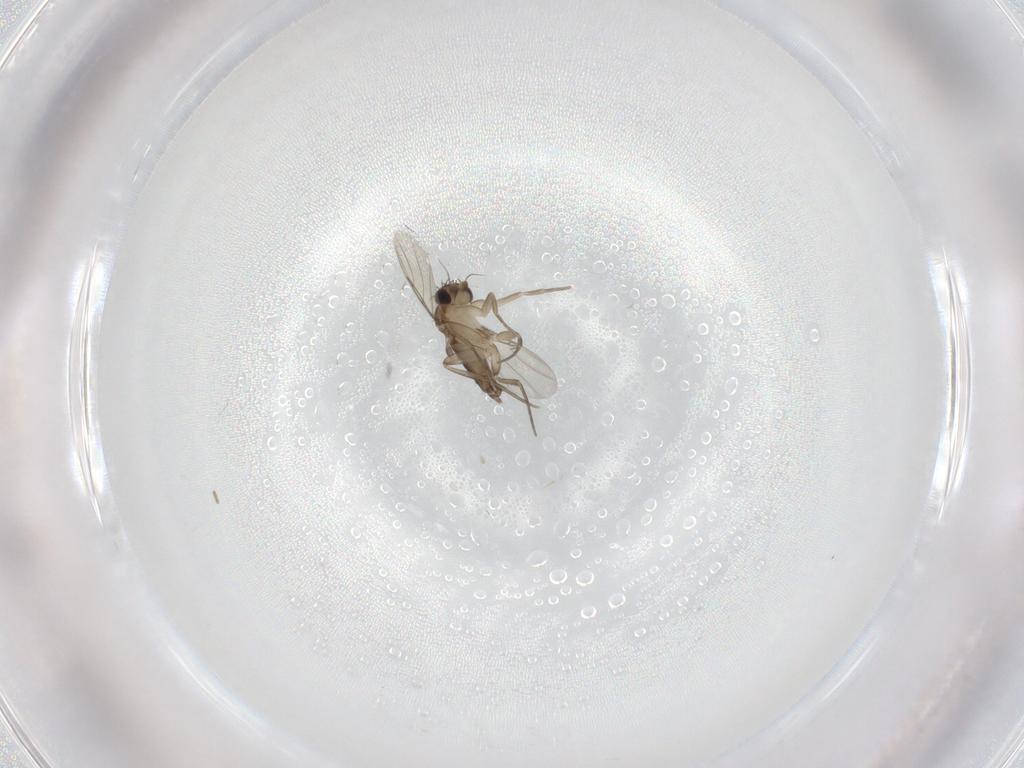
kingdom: Animalia
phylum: Arthropoda
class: Insecta
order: Diptera
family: Phoridae
